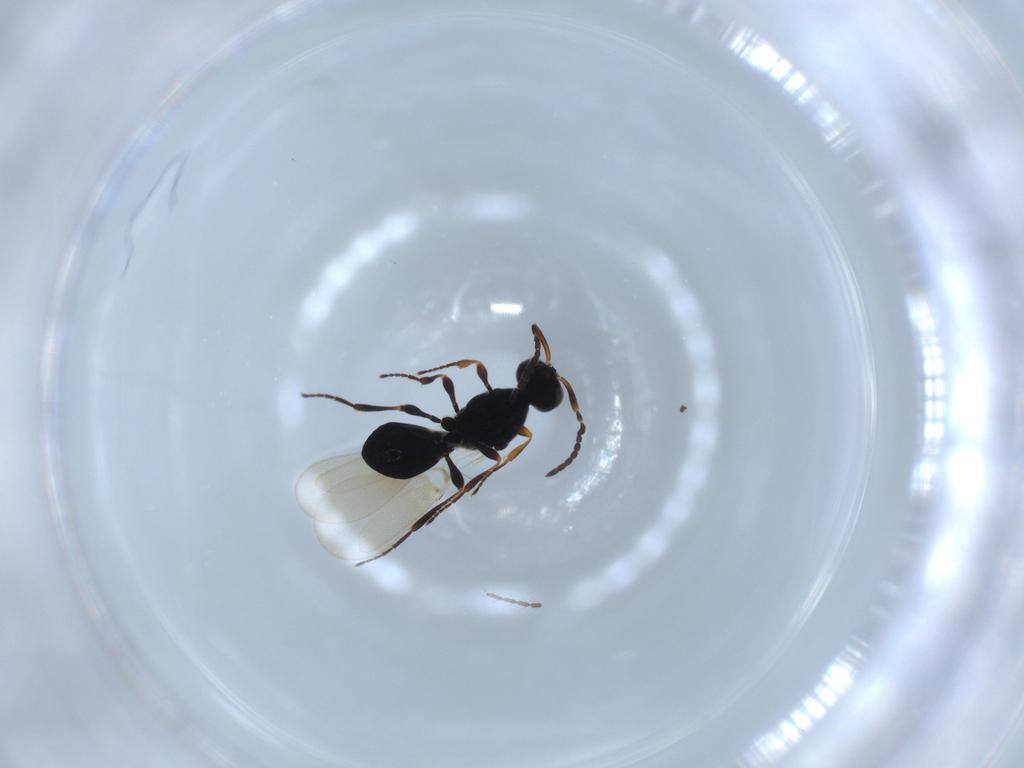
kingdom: Animalia
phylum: Arthropoda
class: Insecta
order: Hymenoptera
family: Platygastridae
